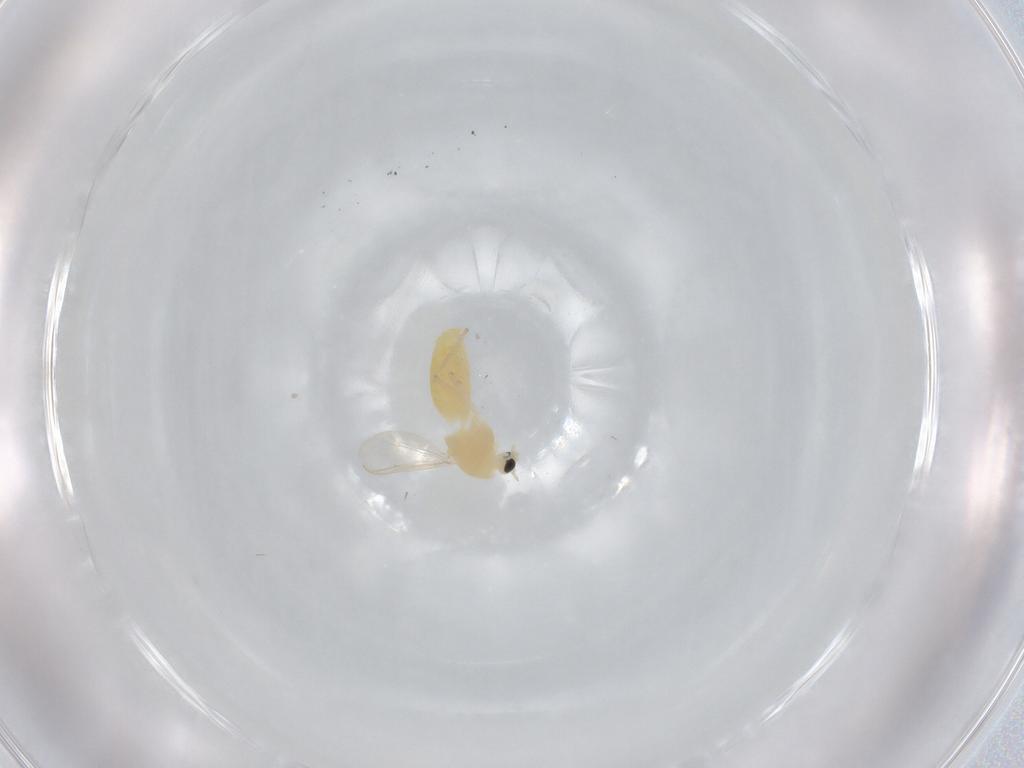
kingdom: Animalia
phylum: Arthropoda
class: Insecta
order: Diptera
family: Chironomidae
